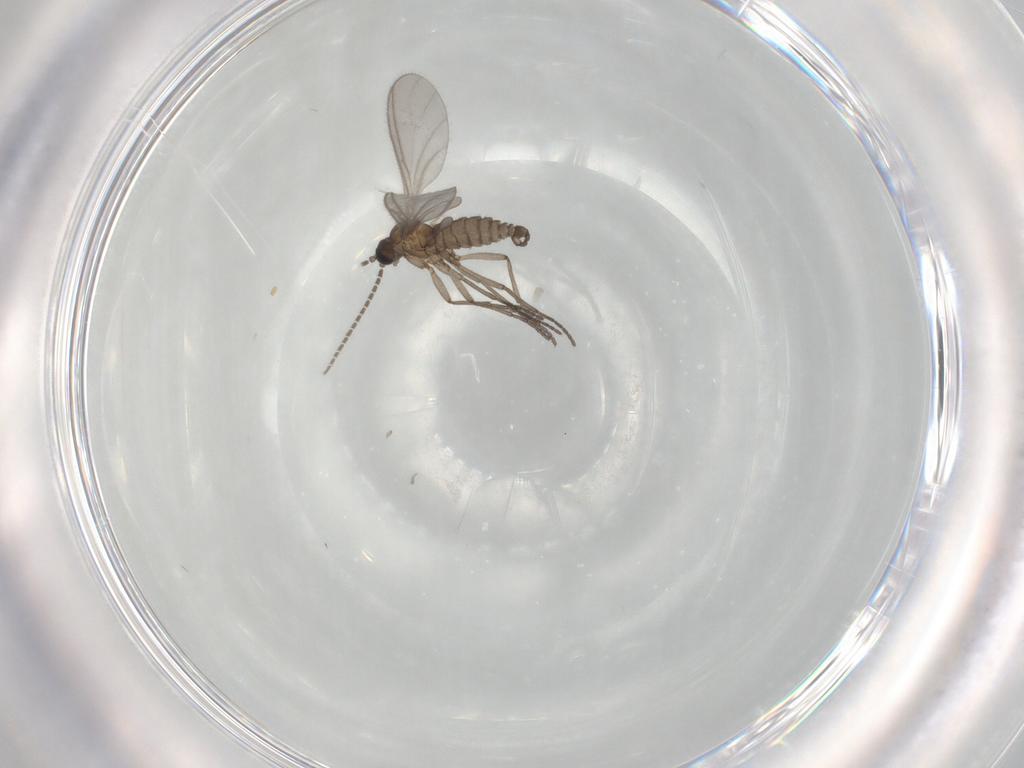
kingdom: Animalia
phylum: Arthropoda
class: Insecta
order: Diptera
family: Sciaridae
